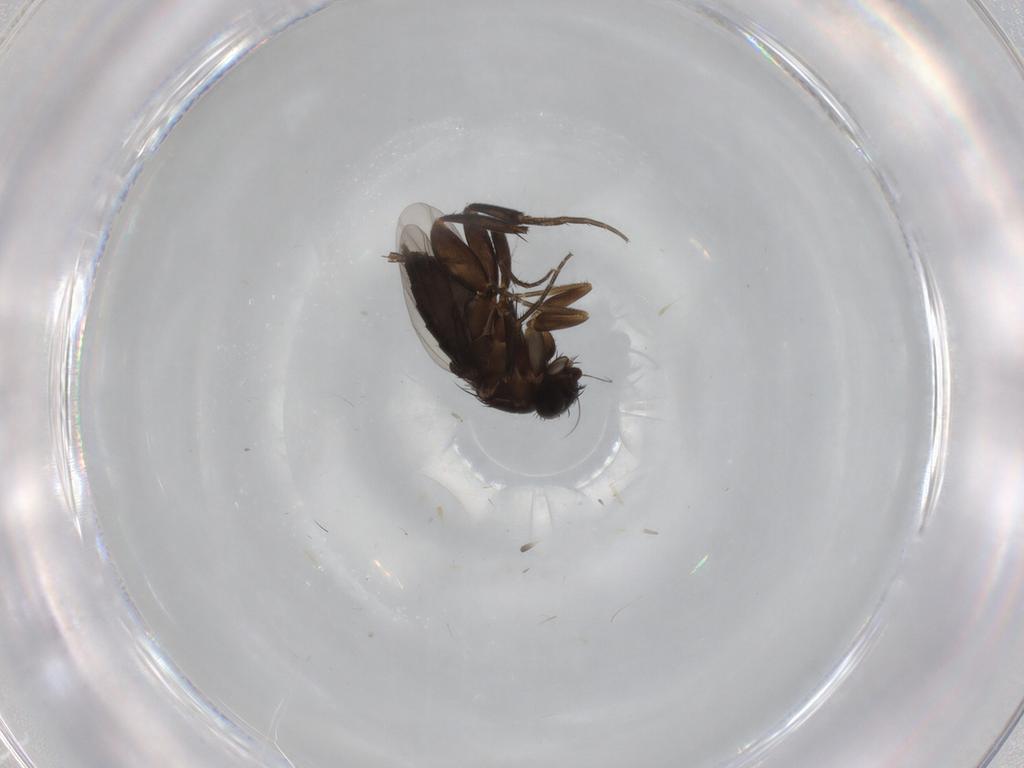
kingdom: Animalia
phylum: Arthropoda
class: Insecta
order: Diptera
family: Phoridae
